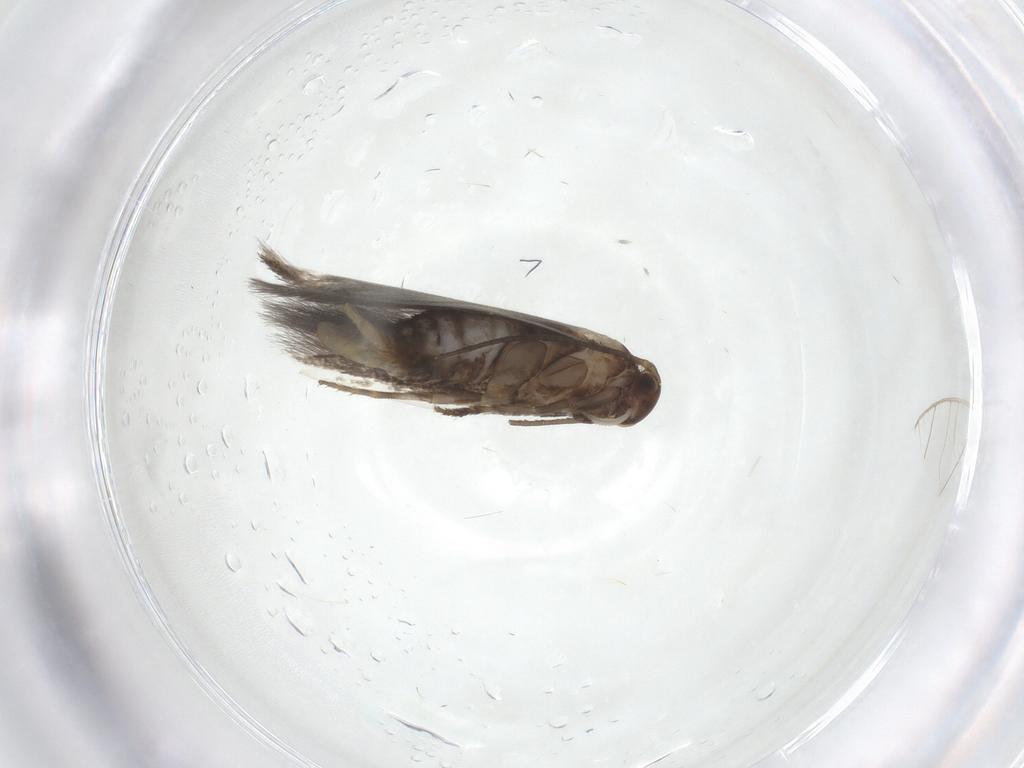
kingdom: Animalia
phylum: Arthropoda
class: Insecta
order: Lepidoptera
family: Elachistidae
